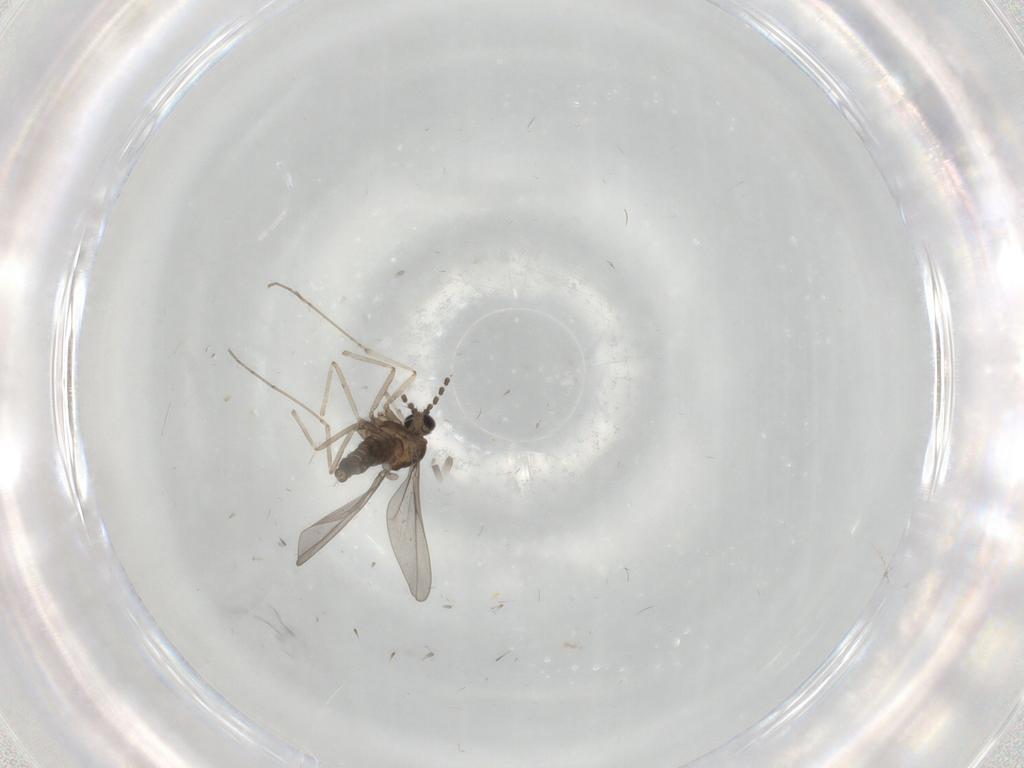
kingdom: Animalia
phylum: Arthropoda
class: Insecta
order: Diptera
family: Cecidomyiidae
